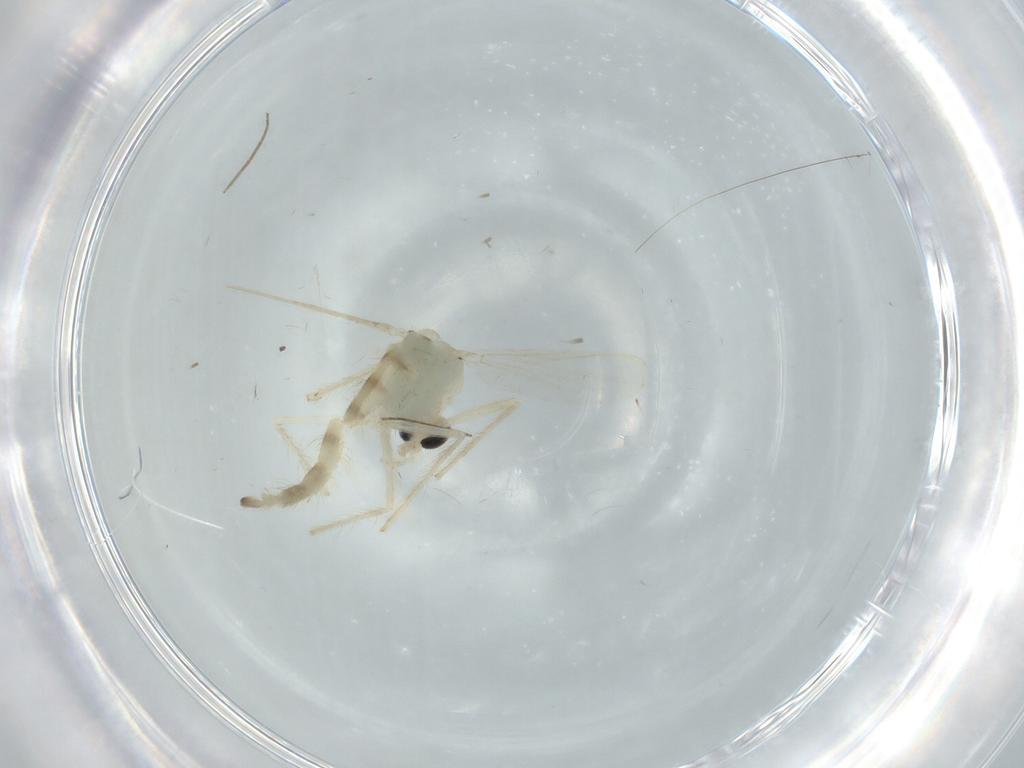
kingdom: Animalia
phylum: Arthropoda
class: Insecta
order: Diptera
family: Chironomidae
